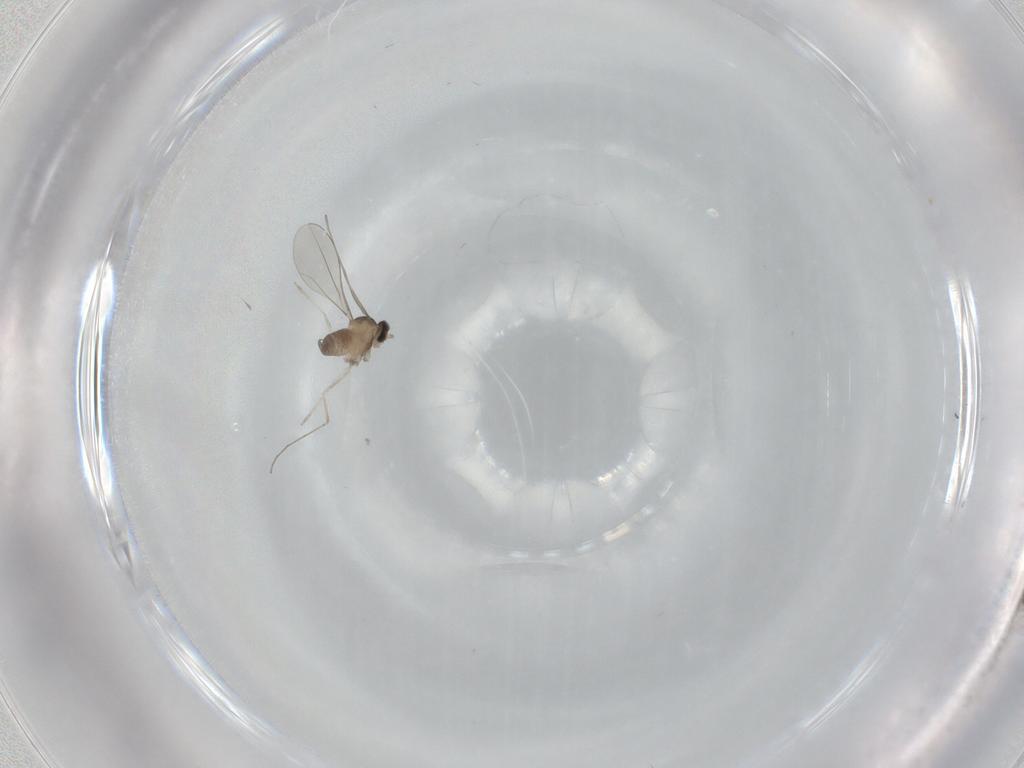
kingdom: Animalia
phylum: Arthropoda
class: Insecta
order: Diptera
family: Cecidomyiidae
